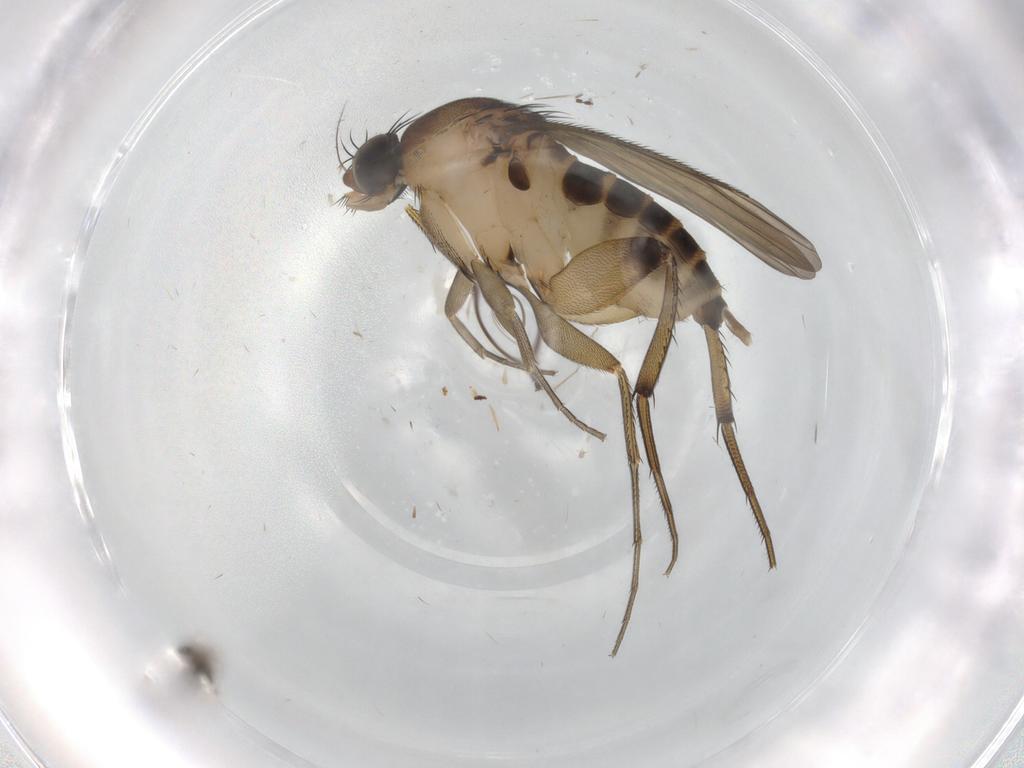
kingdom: Animalia
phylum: Arthropoda
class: Insecta
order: Diptera
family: Limoniidae
